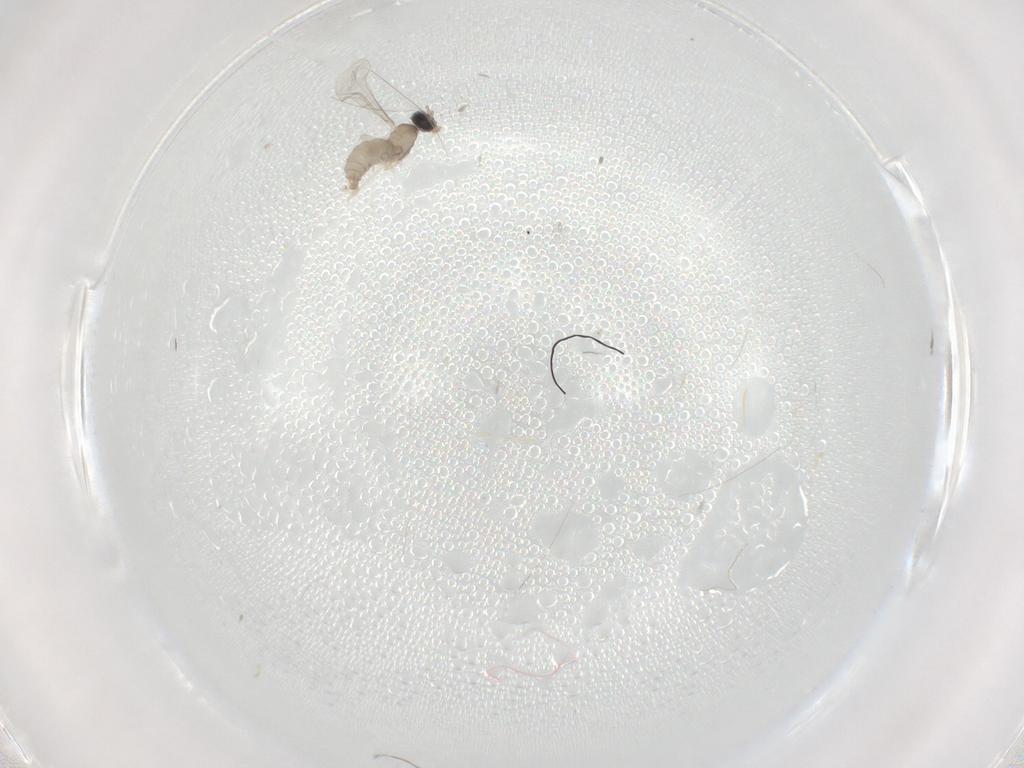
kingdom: Animalia
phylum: Arthropoda
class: Insecta
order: Diptera
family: Cecidomyiidae
